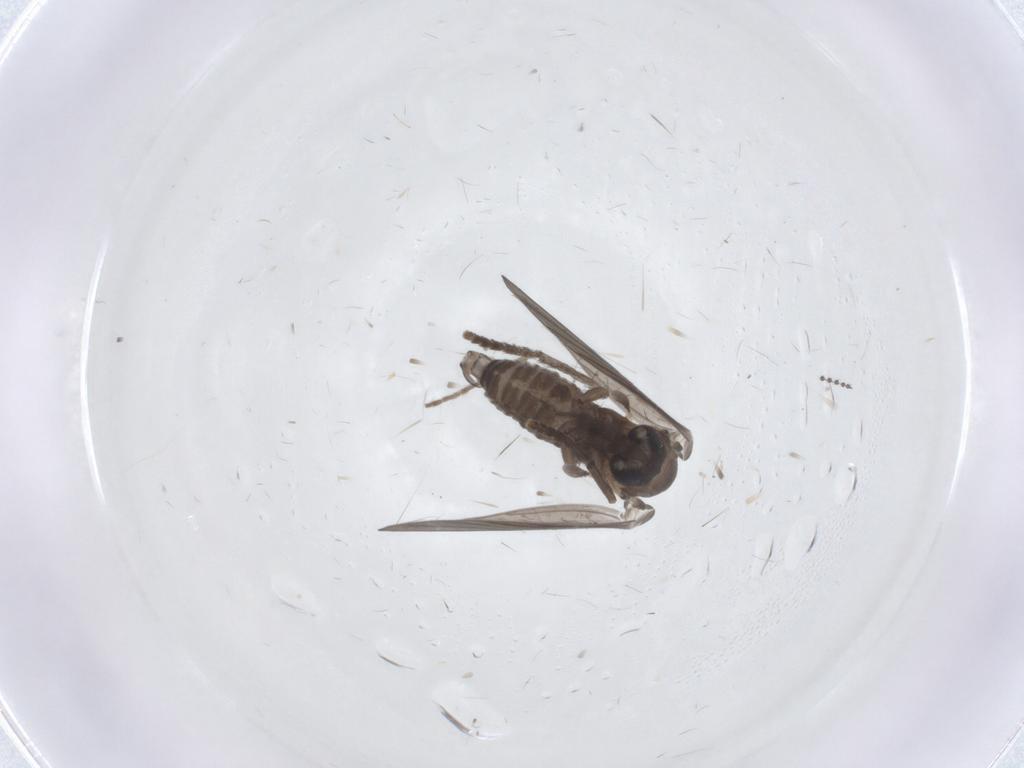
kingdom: Animalia
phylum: Arthropoda
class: Insecta
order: Diptera
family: Psychodidae
